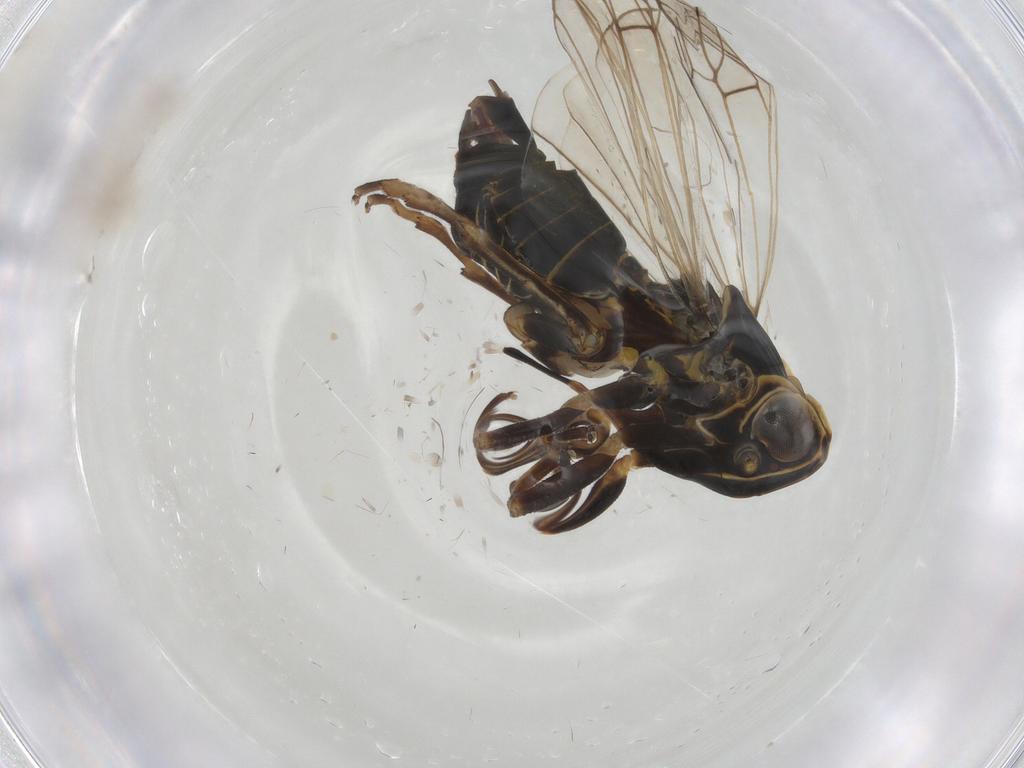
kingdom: Animalia
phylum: Arthropoda
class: Insecta
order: Hemiptera
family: Cixiidae
